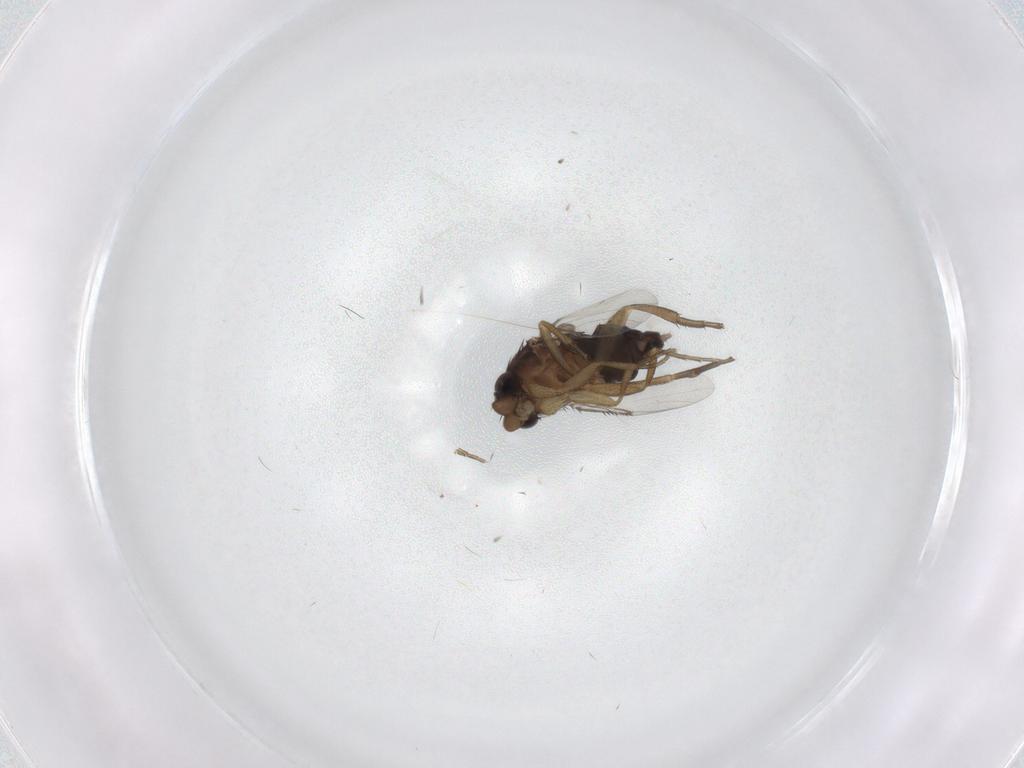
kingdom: Animalia
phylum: Arthropoda
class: Insecta
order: Diptera
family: Phoridae
